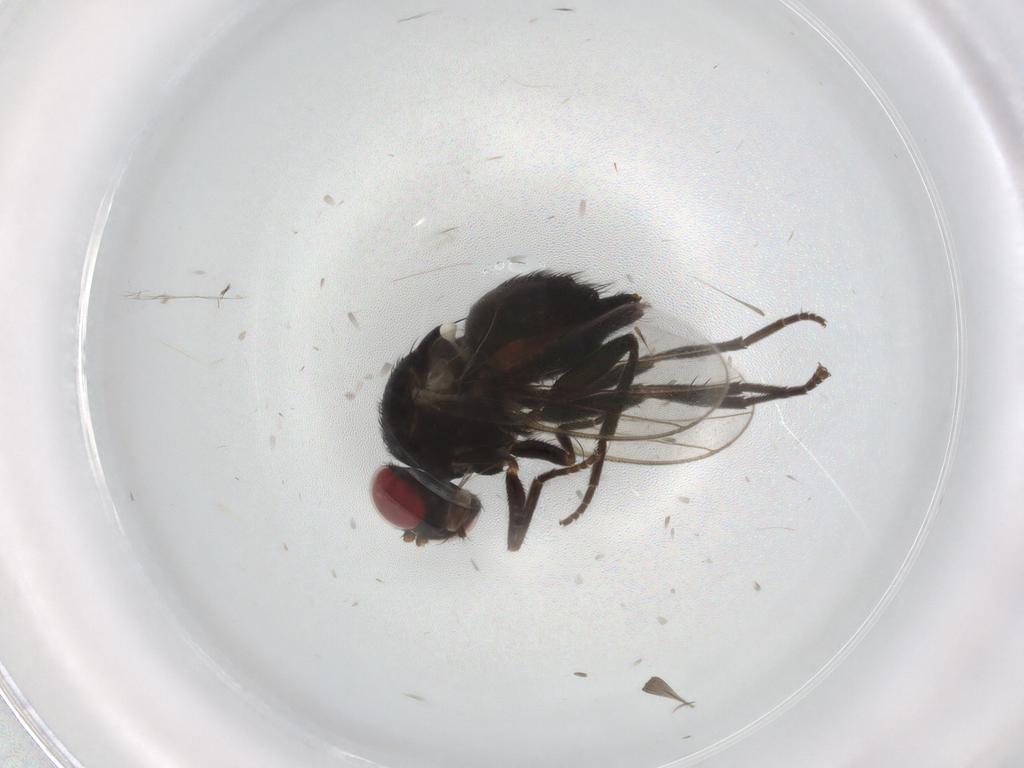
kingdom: Animalia
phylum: Arthropoda
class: Insecta
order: Diptera
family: Agromyzidae
